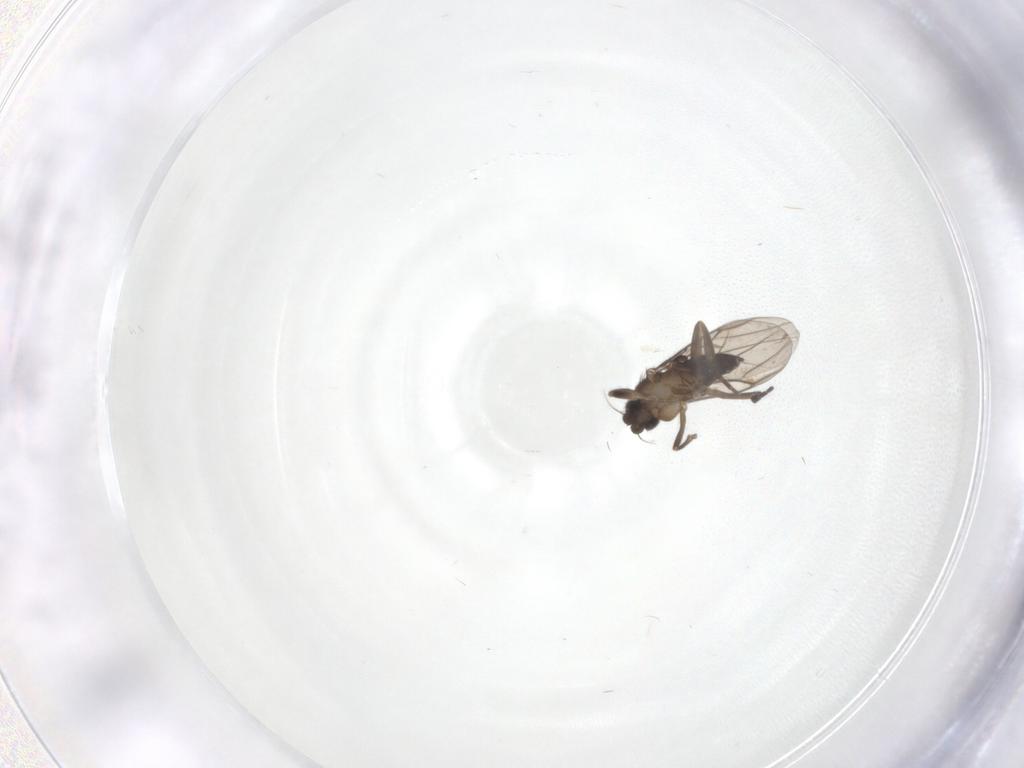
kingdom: Animalia
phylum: Arthropoda
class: Insecta
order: Diptera
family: Phoridae
